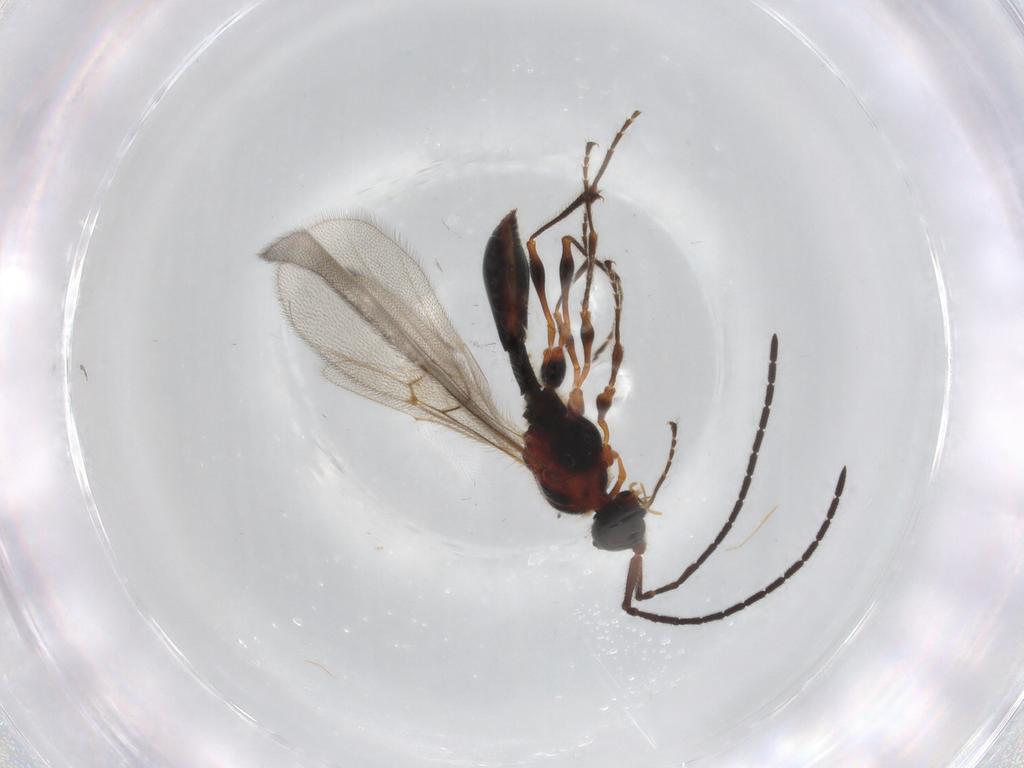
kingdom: Animalia
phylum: Arthropoda
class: Insecta
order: Hymenoptera
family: Diapriidae
